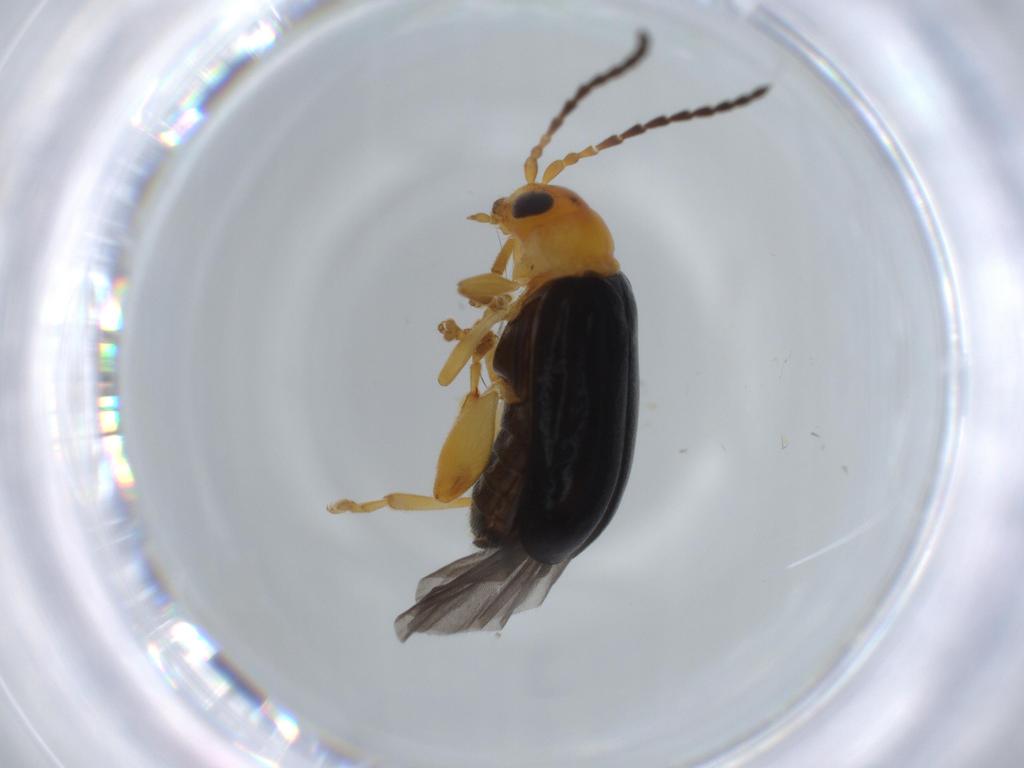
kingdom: Animalia
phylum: Arthropoda
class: Insecta
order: Coleoptera
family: Chrysomelidae
